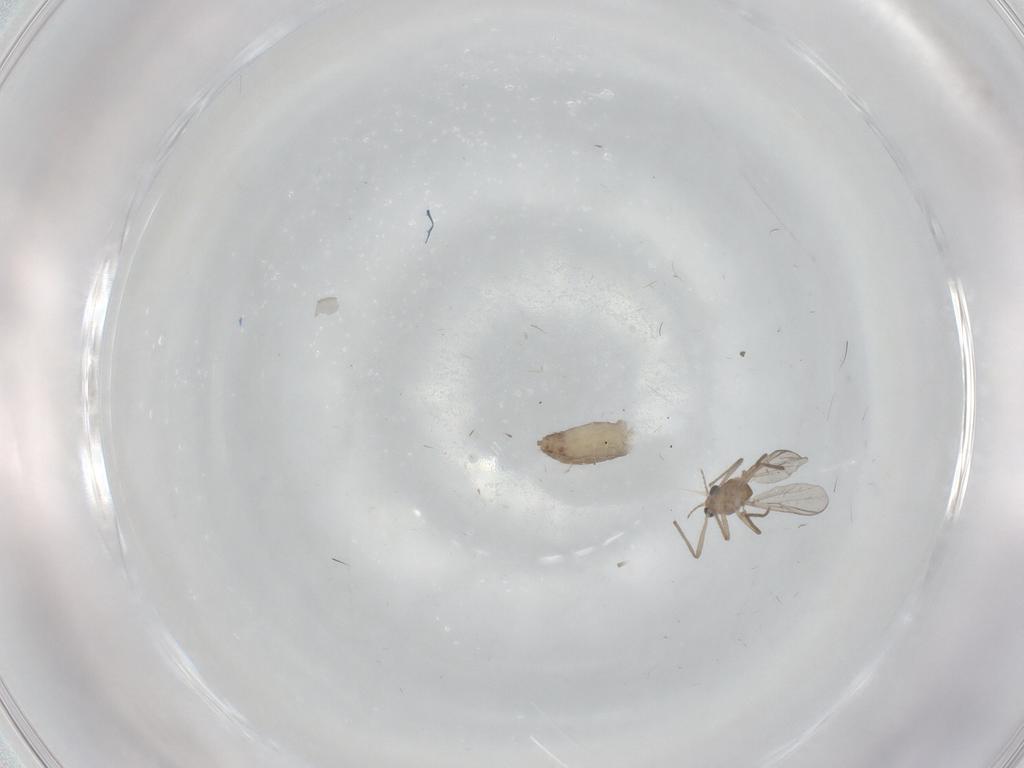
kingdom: Animalia
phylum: Arthropoda
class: Insecta
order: Diptera
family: Chironomidae
